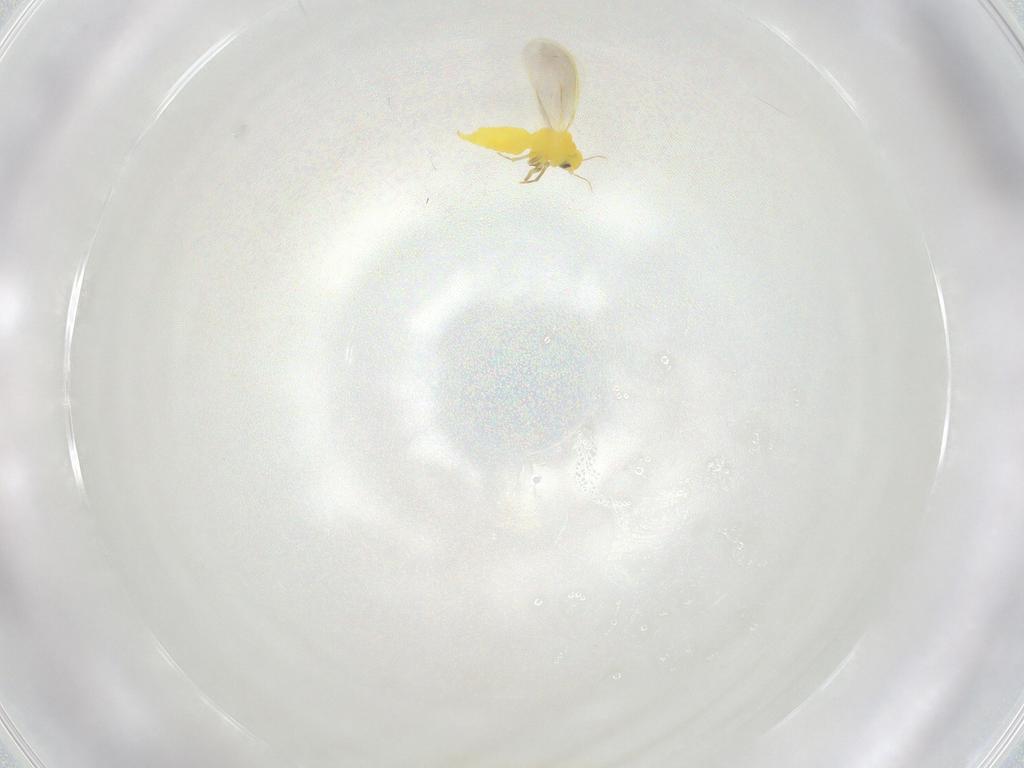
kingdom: Animalia
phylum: Arthropoda
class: Insecta
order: Hemiptera
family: Aleyrodidae
